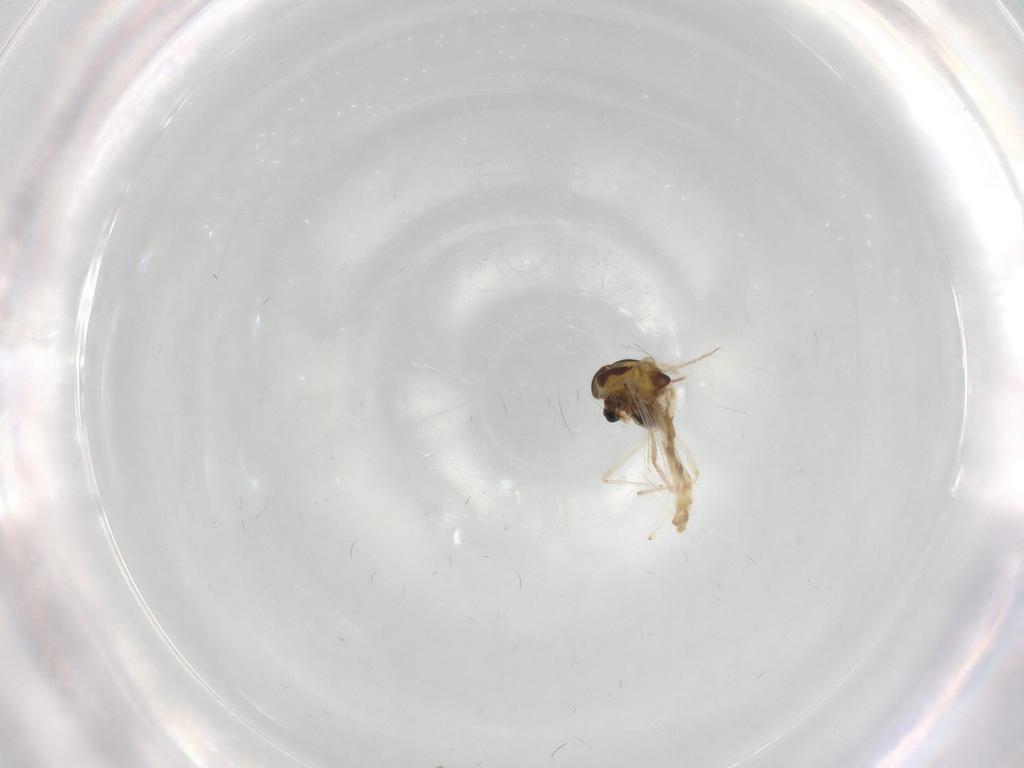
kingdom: Animalia
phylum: Arthropoda
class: Insecta
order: Diptera
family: Chironomidae
